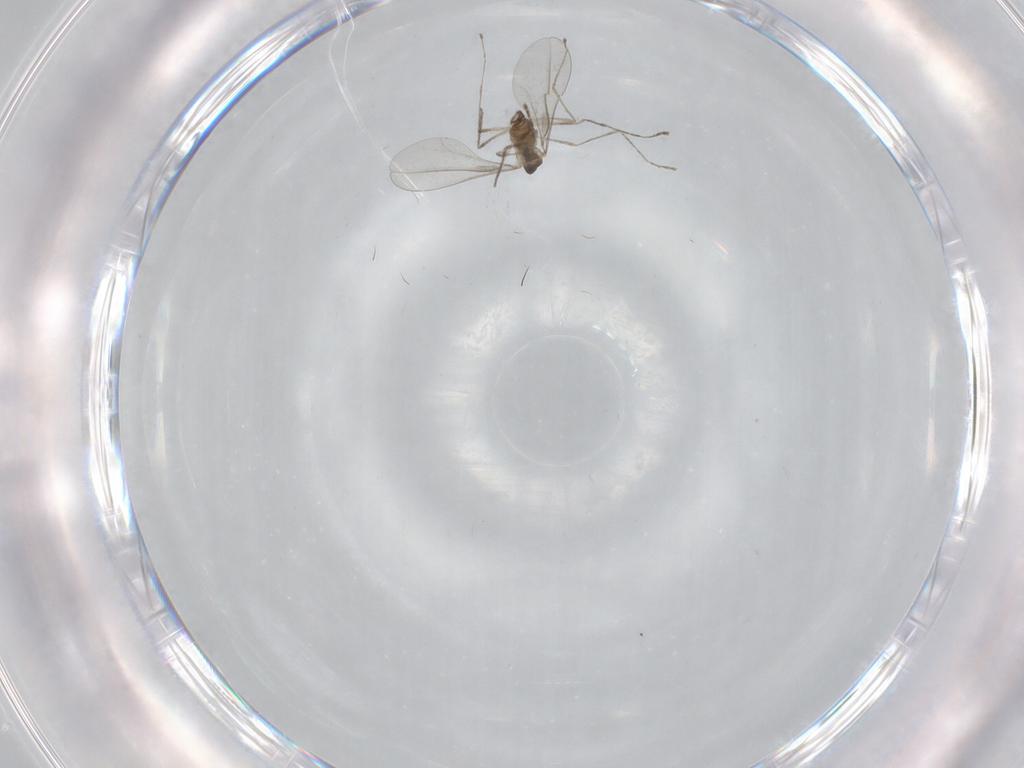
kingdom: Animalia
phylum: Arthropoda
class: Insecta
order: Diptera
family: Cecidomyiidae
